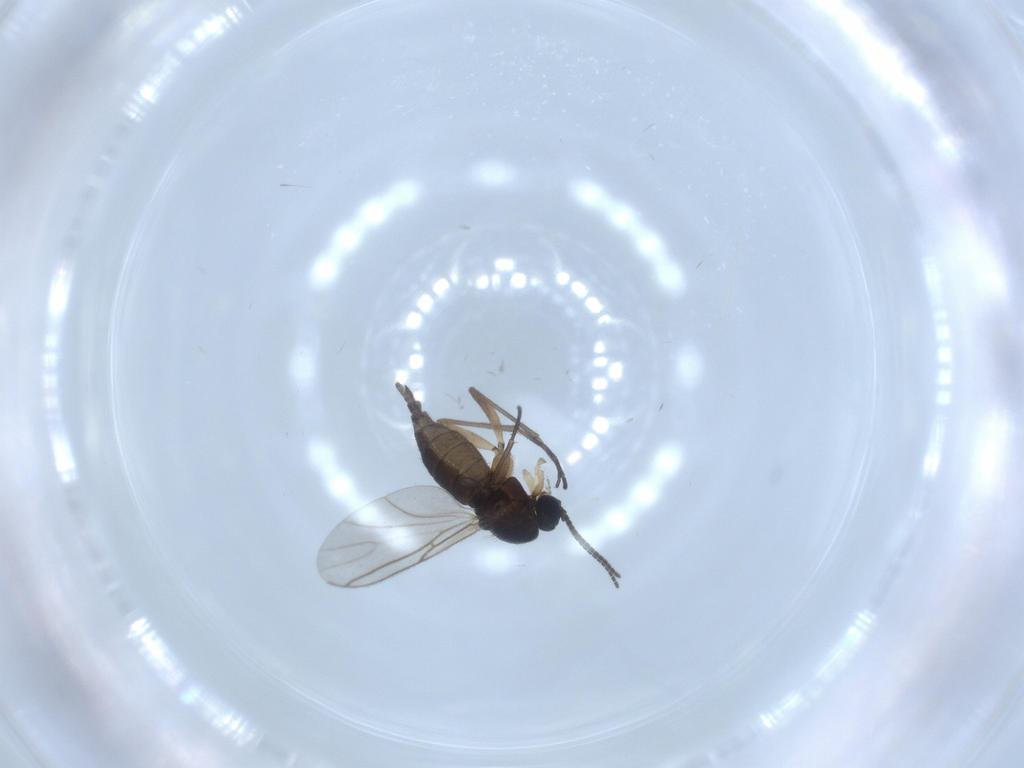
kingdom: Animalia
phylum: Arthropoda
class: Insecta
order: Diptera
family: Sciaridae
